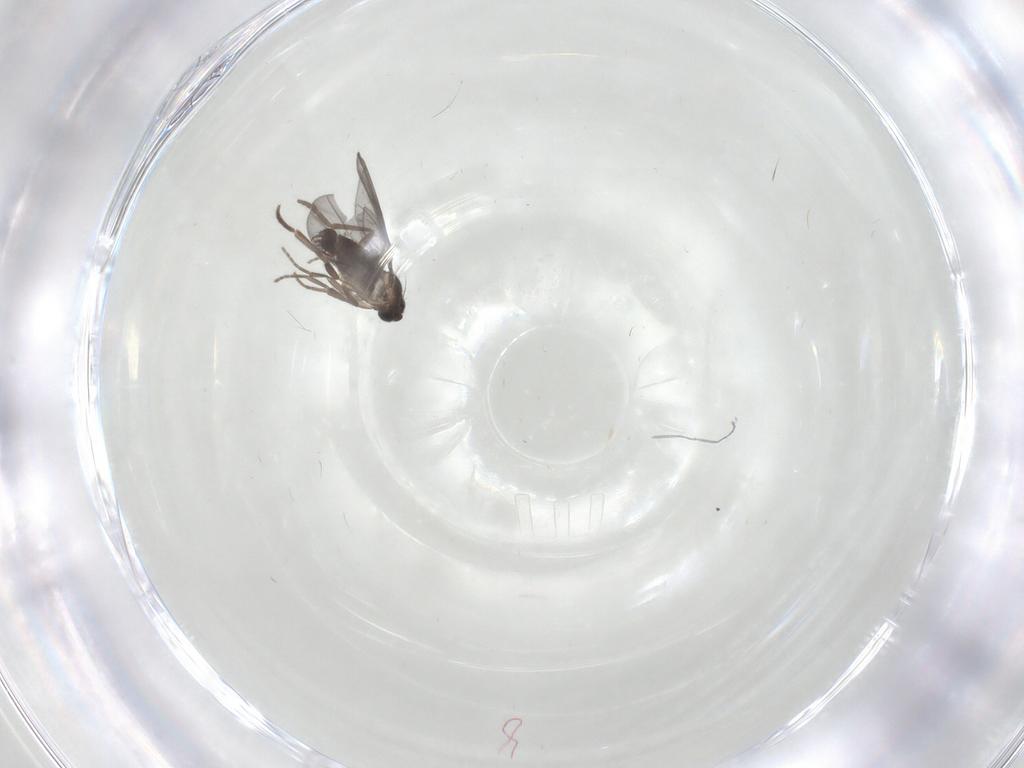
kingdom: Animalia
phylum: Arthropoda
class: Insecta
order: Diptera
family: Phoridae
